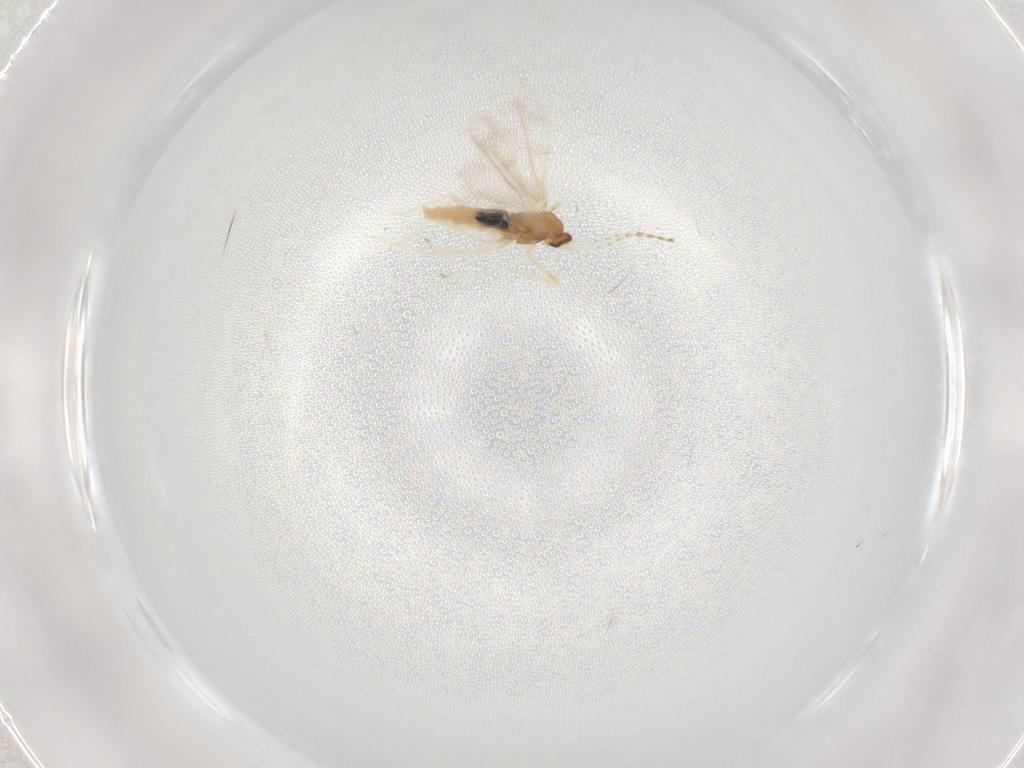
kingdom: Animalia
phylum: Arthropoda
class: Insecta
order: Diptera
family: Cecidomyiidae
